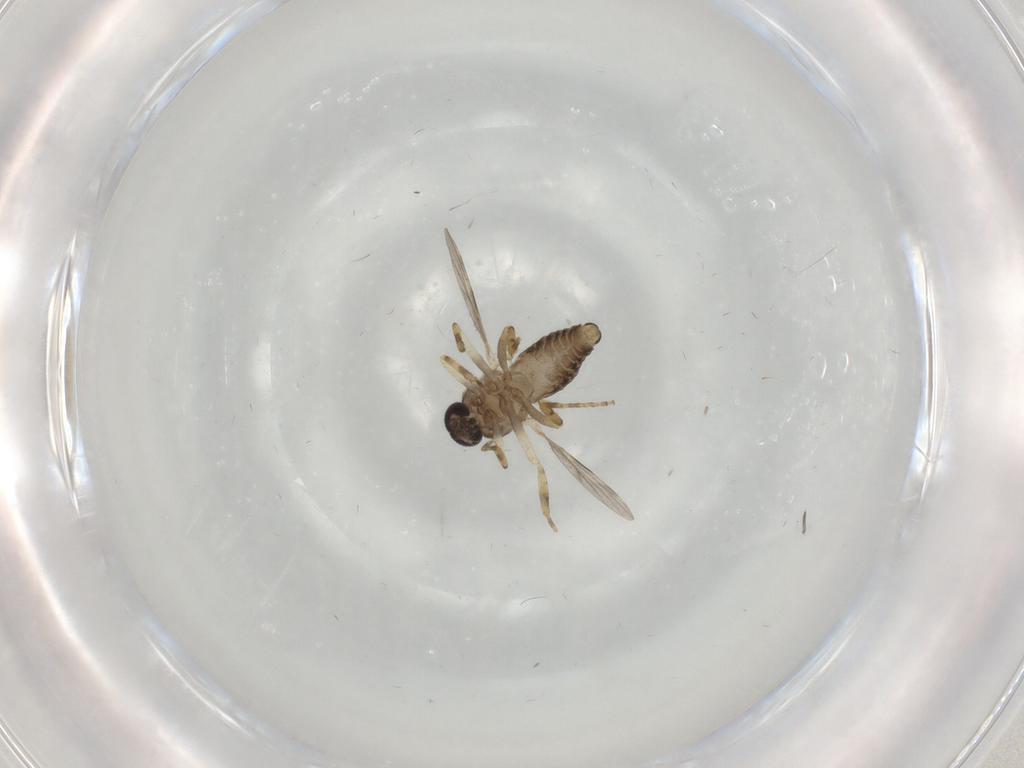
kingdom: Animalia
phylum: Arthropoda
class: Insecta
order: Diptera
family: Ceratopogonidae
